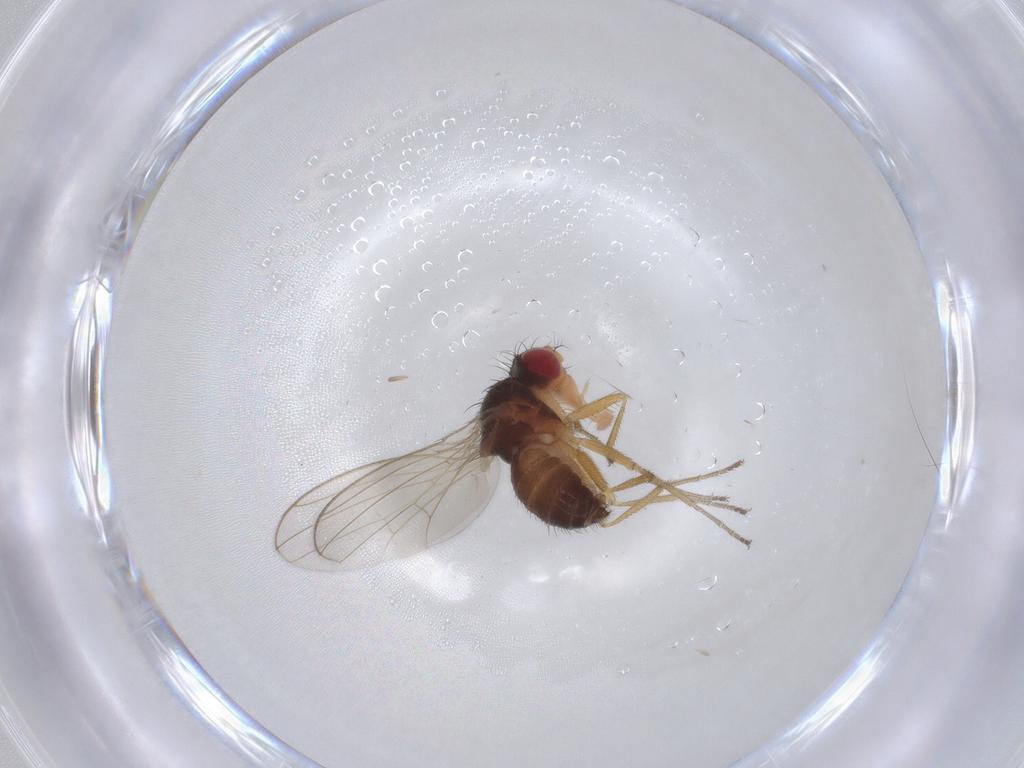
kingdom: Animalia
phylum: Arthropoda
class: Insecta
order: Diptera
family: Drosophilidae
